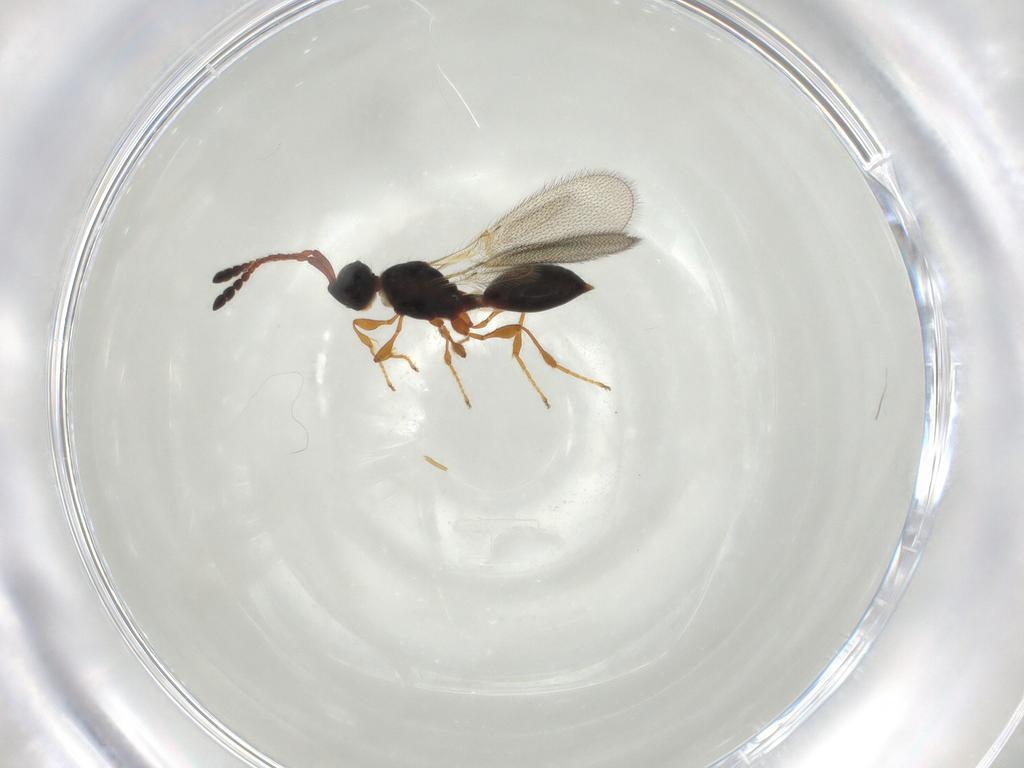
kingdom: Animalia
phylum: Arthropoda
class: Insecta
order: Hymenoptera
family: Diapriidae
